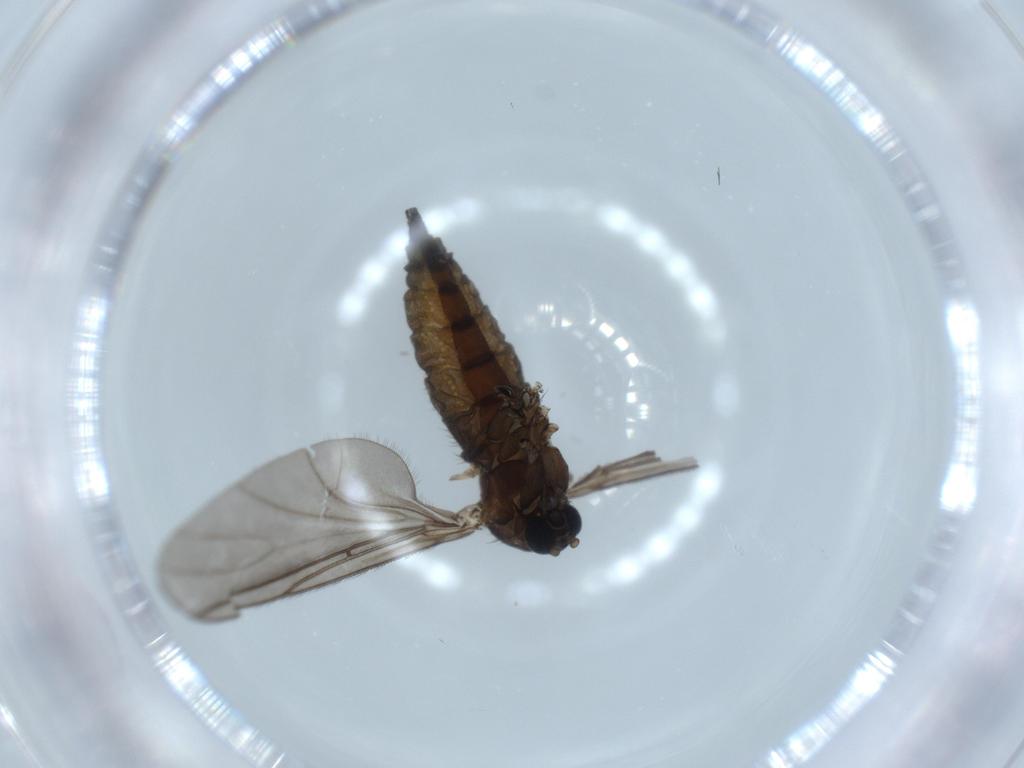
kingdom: Animalia
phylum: Arthropoda
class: Insecta
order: Diptera
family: Sciaridae
